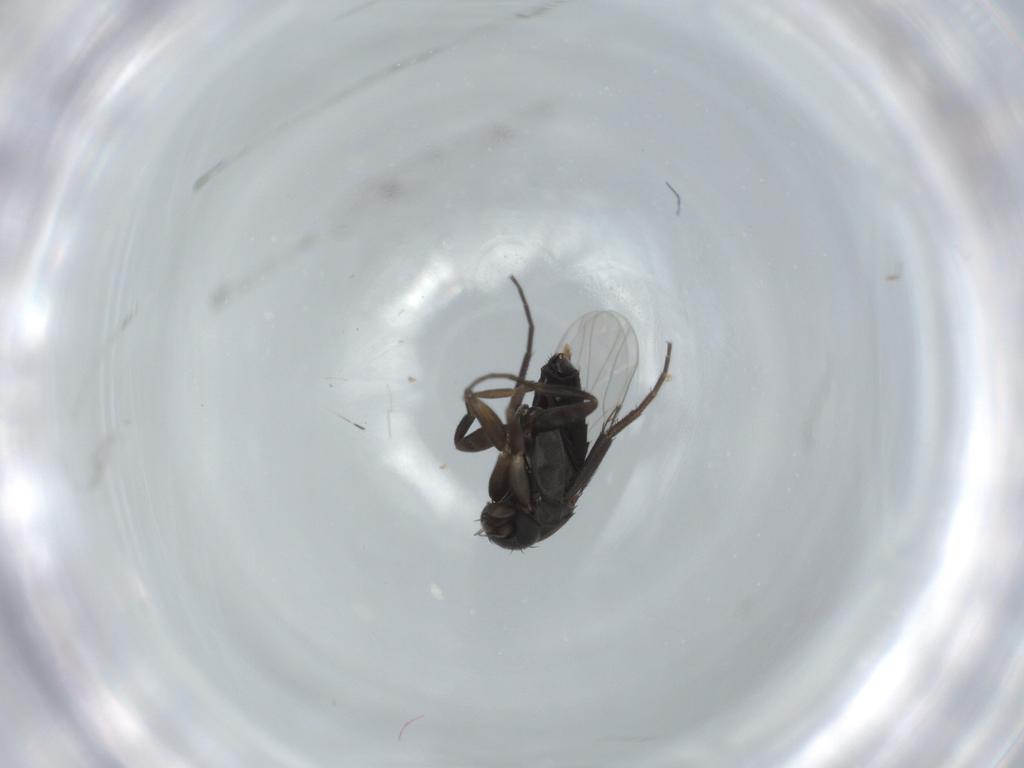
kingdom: Animalia
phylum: Arthropoda
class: Insecta
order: Diptera
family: Phoridae
